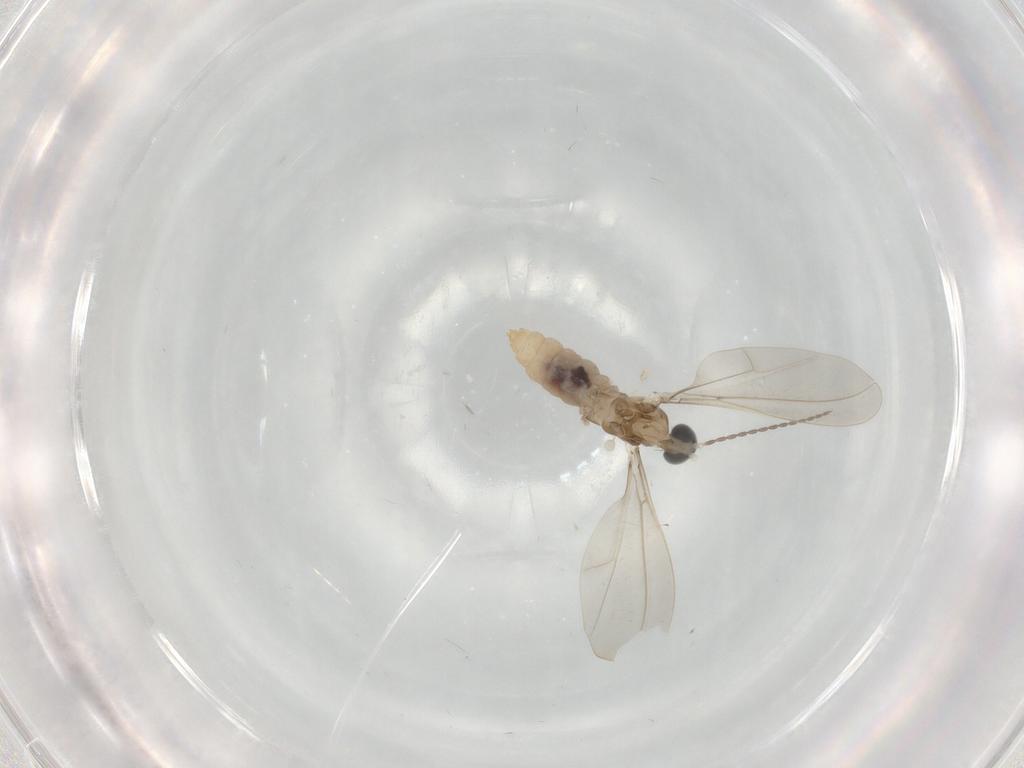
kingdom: Animalia
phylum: Arthropoda
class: Insecta
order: Diptera
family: Cecidomyiidae
